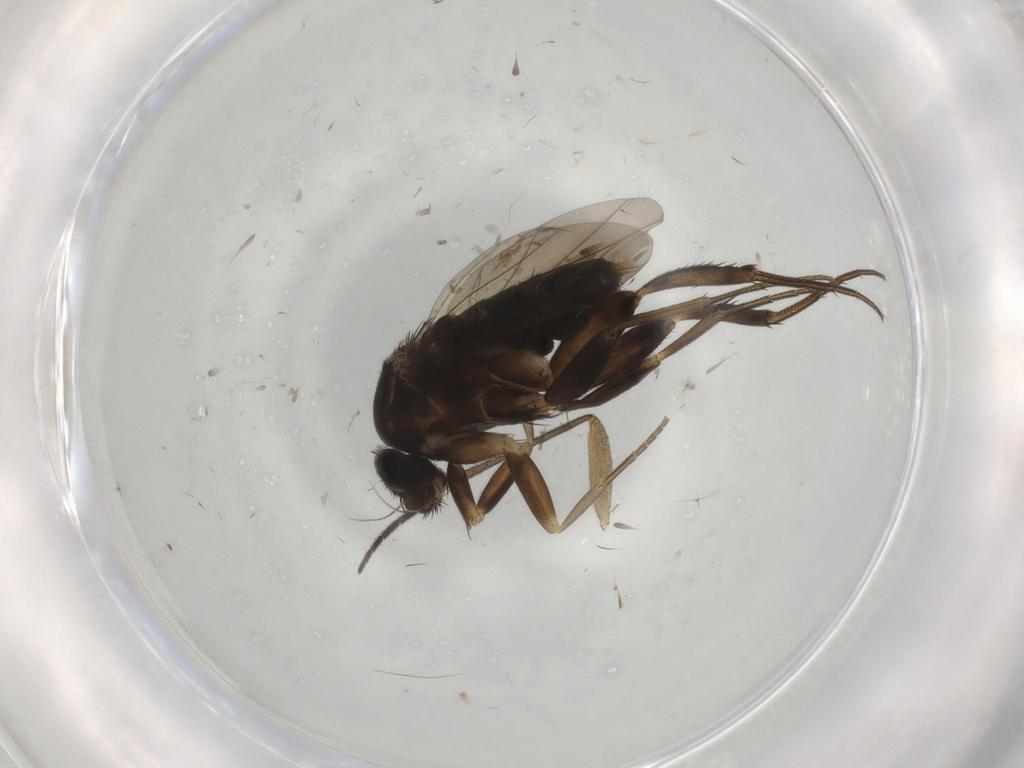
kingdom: Animalia
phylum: Arthropoda
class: Insecta
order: Diptera
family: Phoridae
